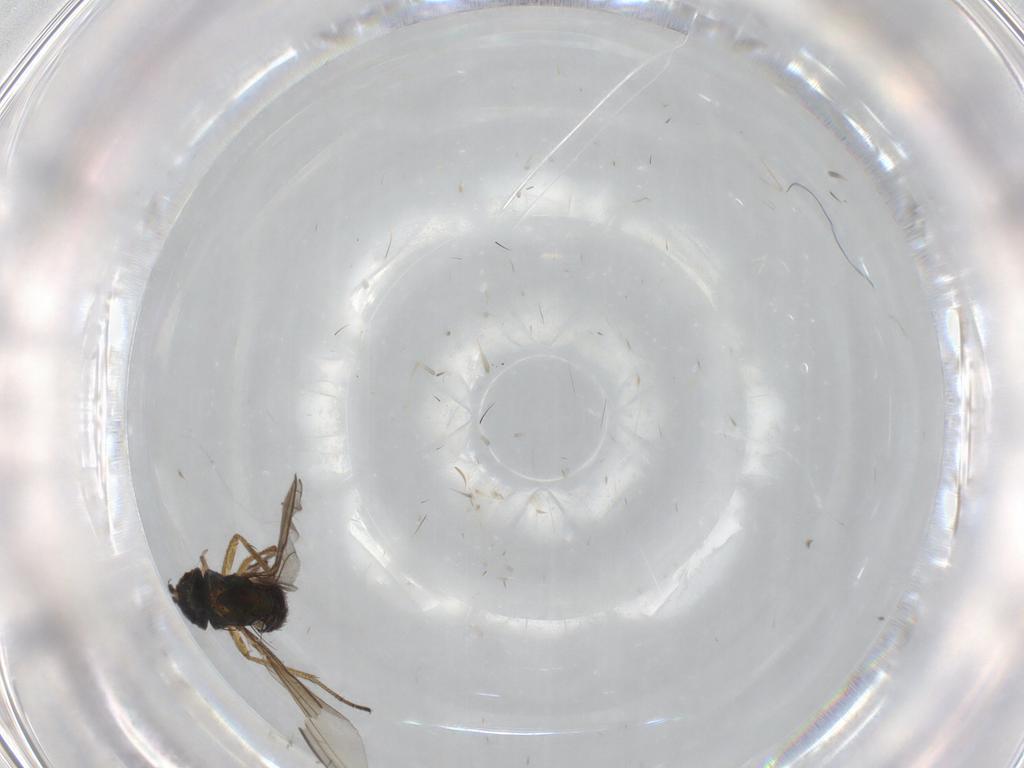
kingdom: Animalia
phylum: Arthropoda
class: Insecta
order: Diptera
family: Dolichopodidae
